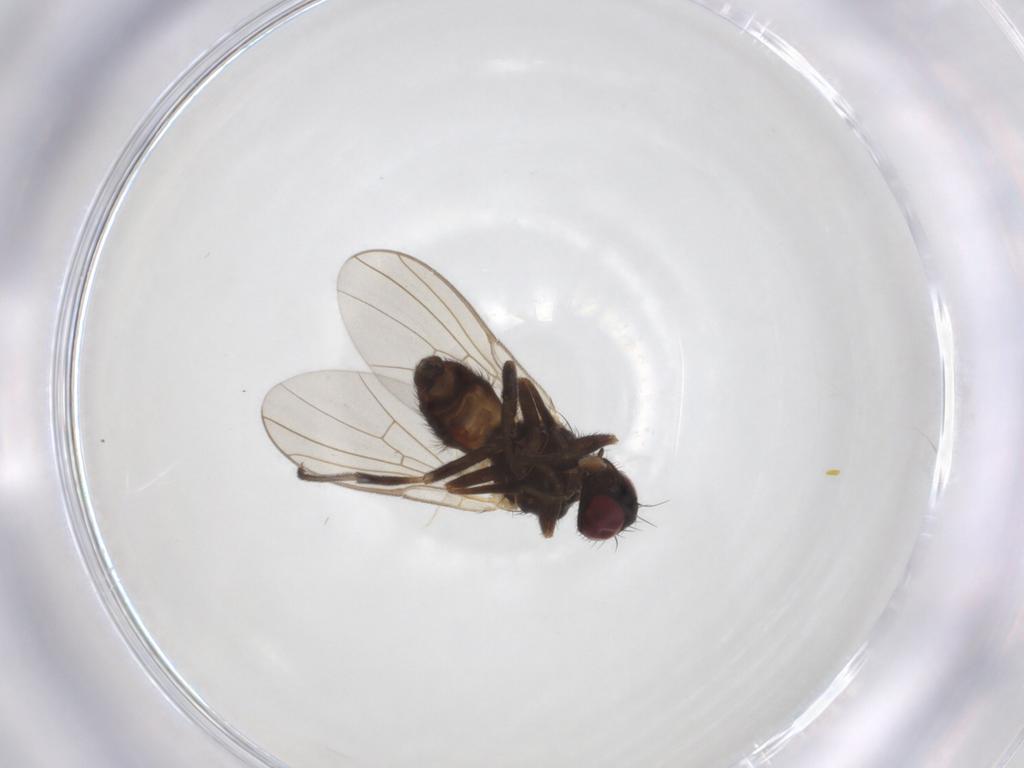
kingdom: Animalia
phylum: Arthropoda
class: Insecta
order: Diptera
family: Agromyzidae
